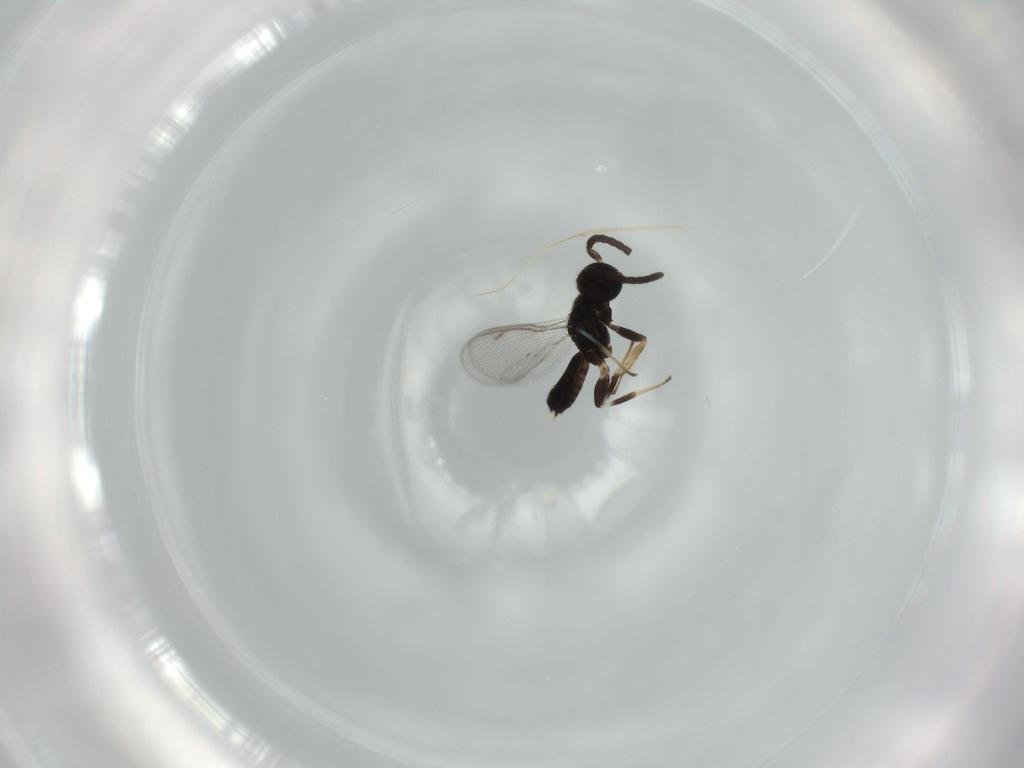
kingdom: Animalia
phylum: Arthropoda
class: Insecta
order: Hymenoptera
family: Eupelmidae
